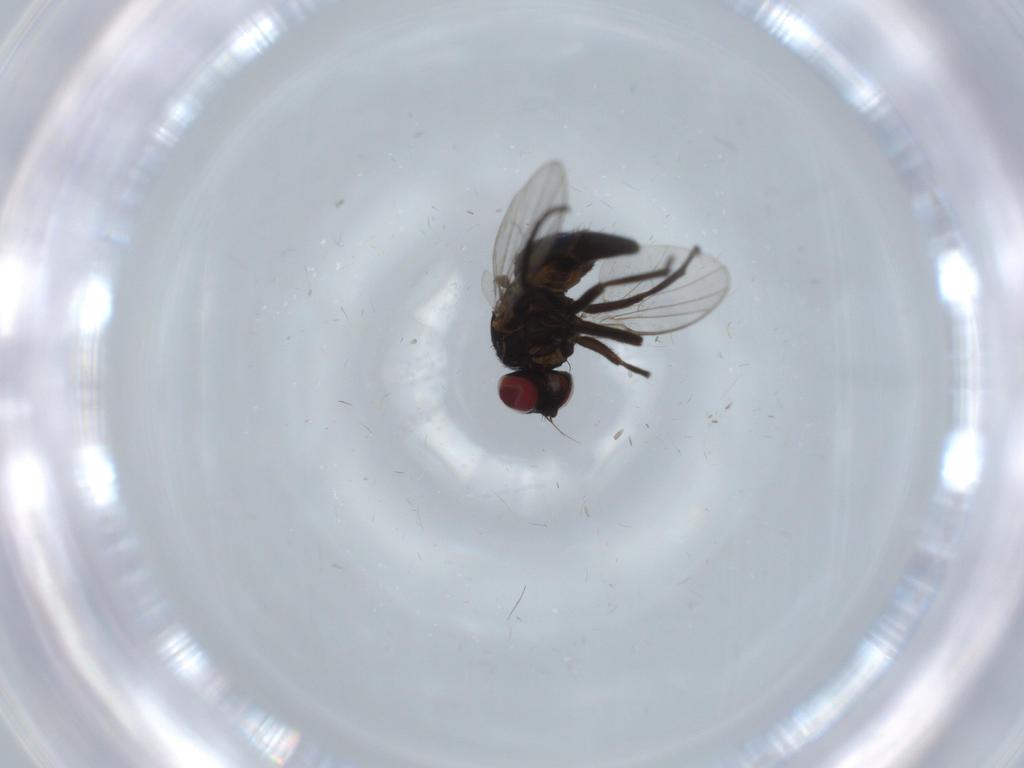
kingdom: Animalia
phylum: Arthropoda
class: Insecta
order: Diptera
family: Agromyzidae
